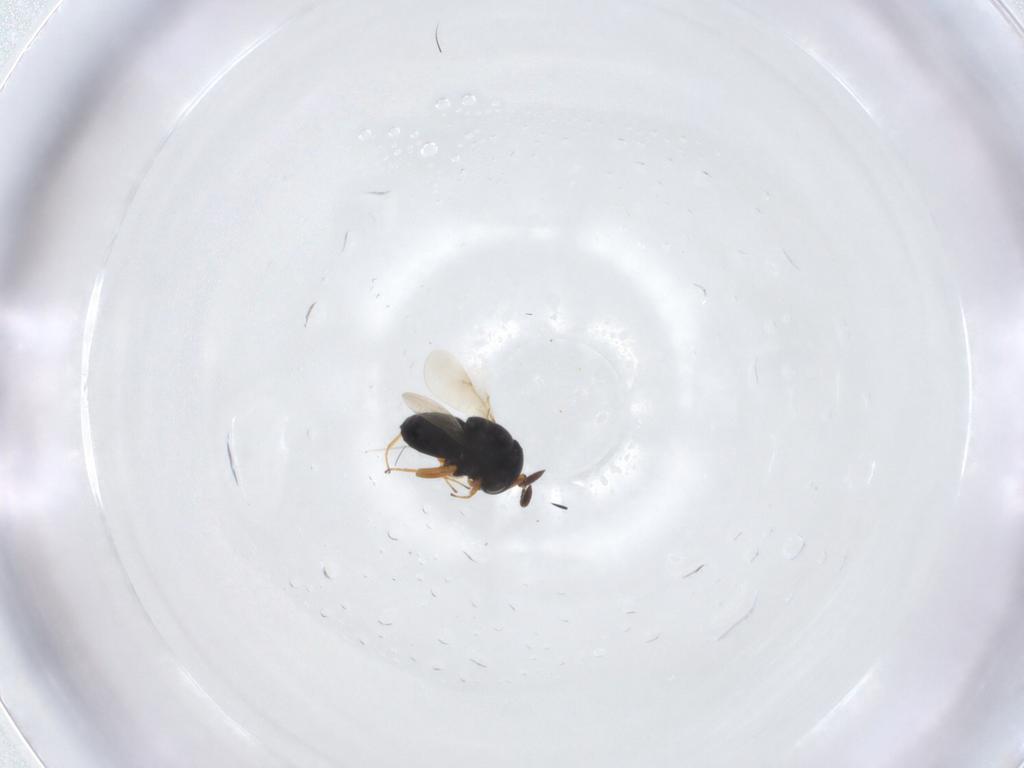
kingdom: Animalia
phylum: Arthropoda
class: Insecta
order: Hymenoptera
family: Scelionidae
